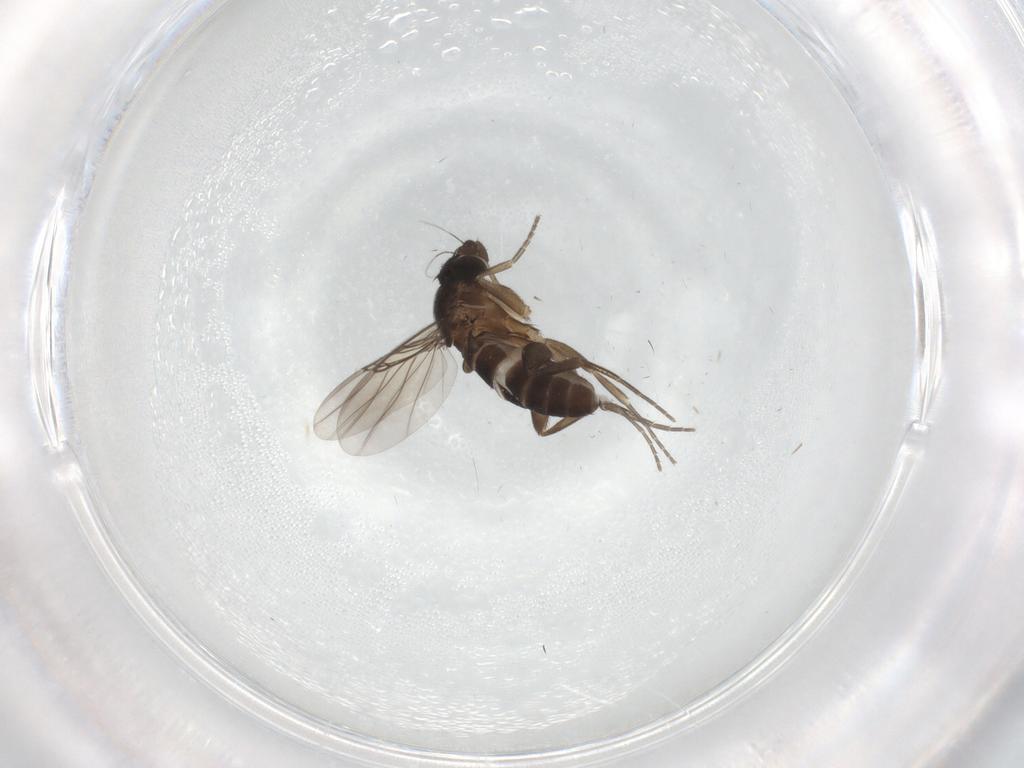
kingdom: Animalia
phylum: Arthropoda
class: Insecta
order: Diptera
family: Phoridae
